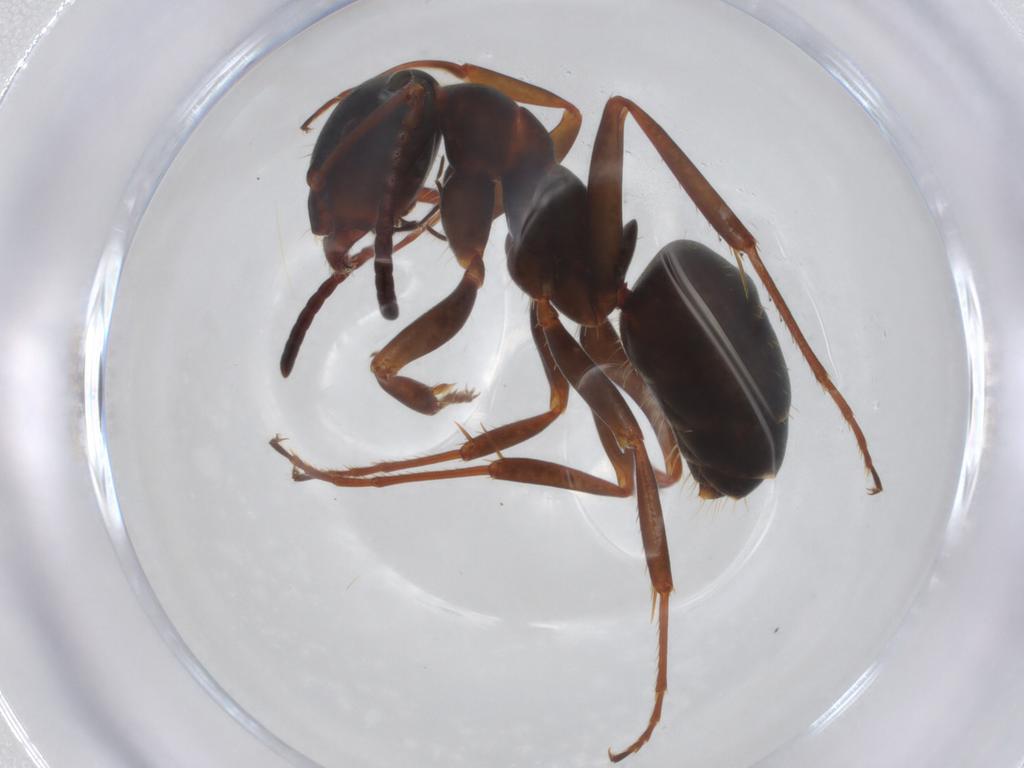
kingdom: Animalia
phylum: Arthropoda
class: Insecta
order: Hymenoptera
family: Formicidae
